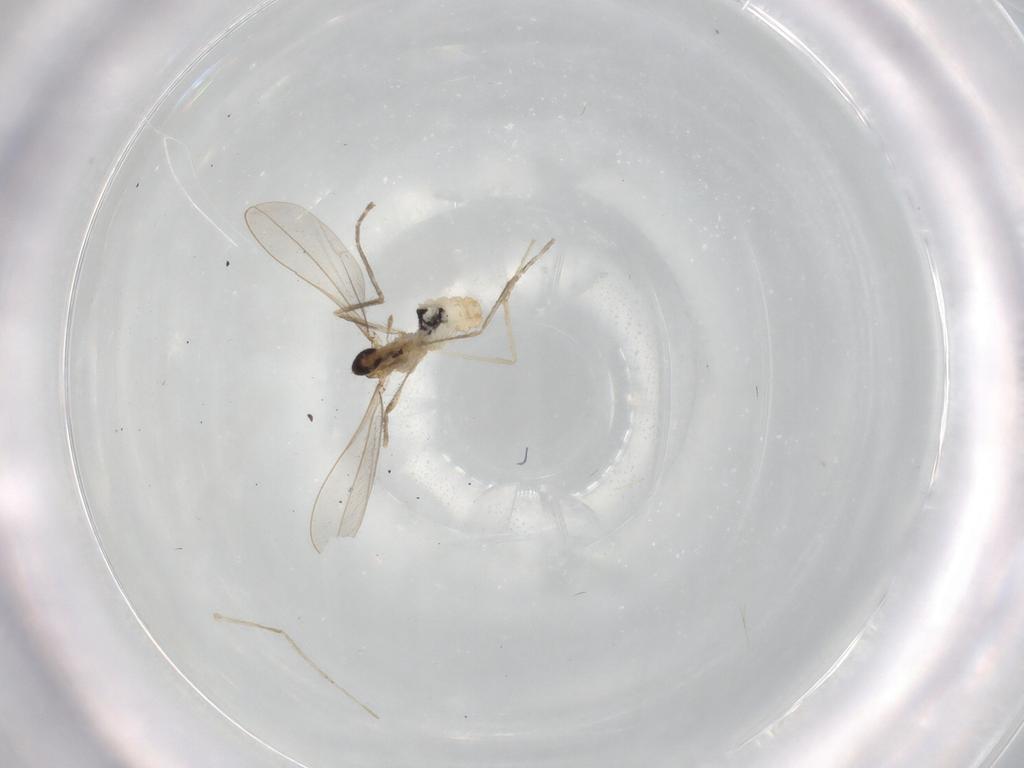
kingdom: Animalia
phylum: Arthropoda
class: Insecta
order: Diptera
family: Cecidomyiidae
